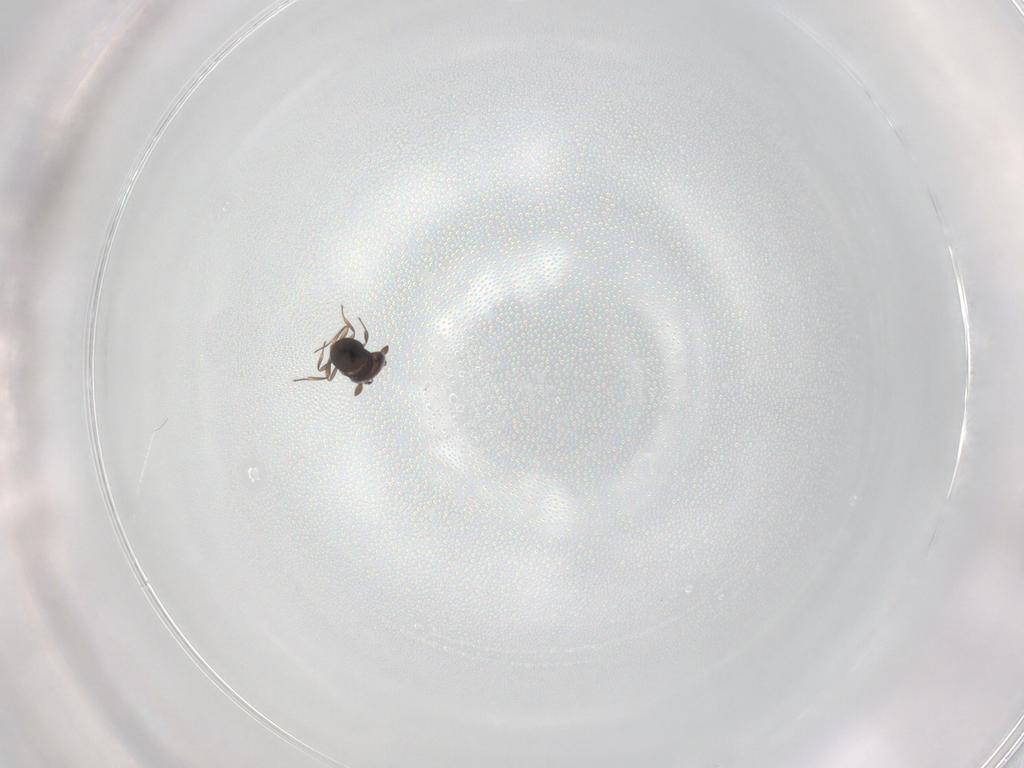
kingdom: Animalia
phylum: Arthropoda
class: Insecta
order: Hymenoptera
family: Scelionidae
